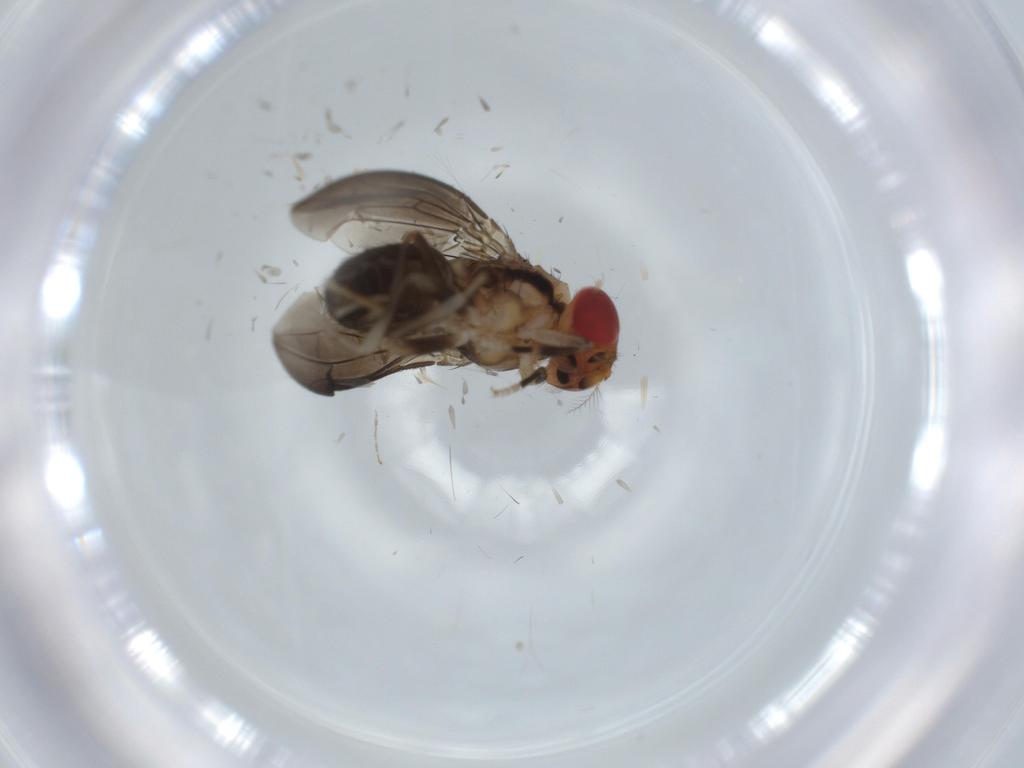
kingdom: Animalia
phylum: Arthropoda
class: Insecta
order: Diptera
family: Drosophilidae
